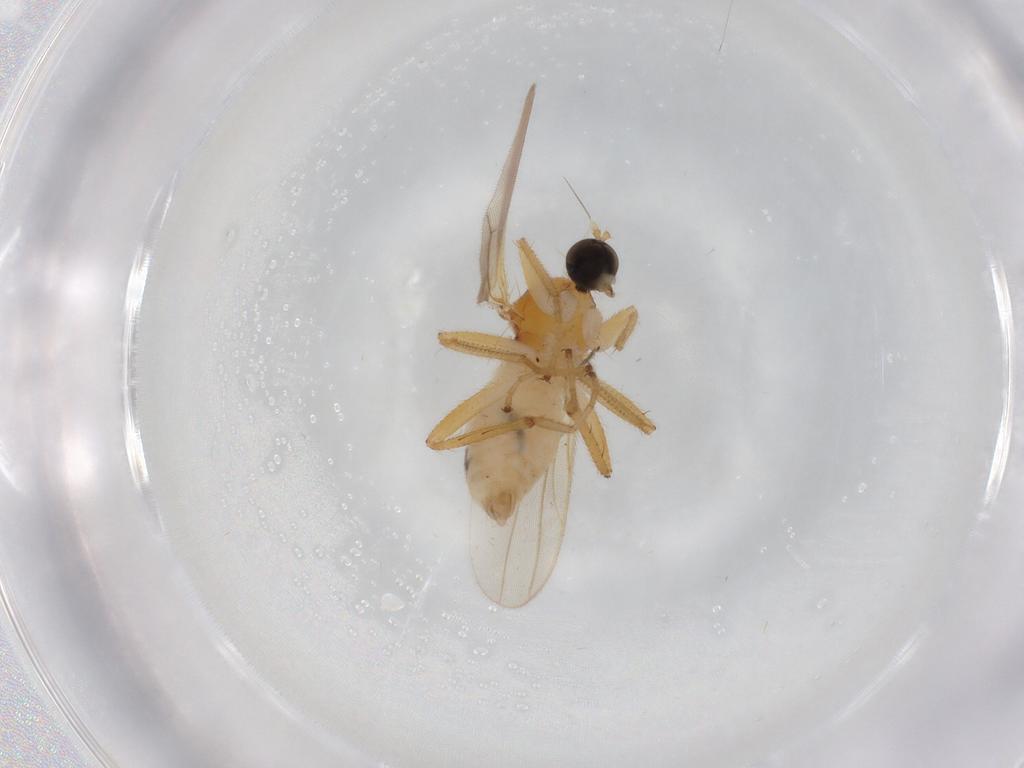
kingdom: Animalia
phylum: Arthropoda
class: Insecta
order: Diptera
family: Hybotidae
